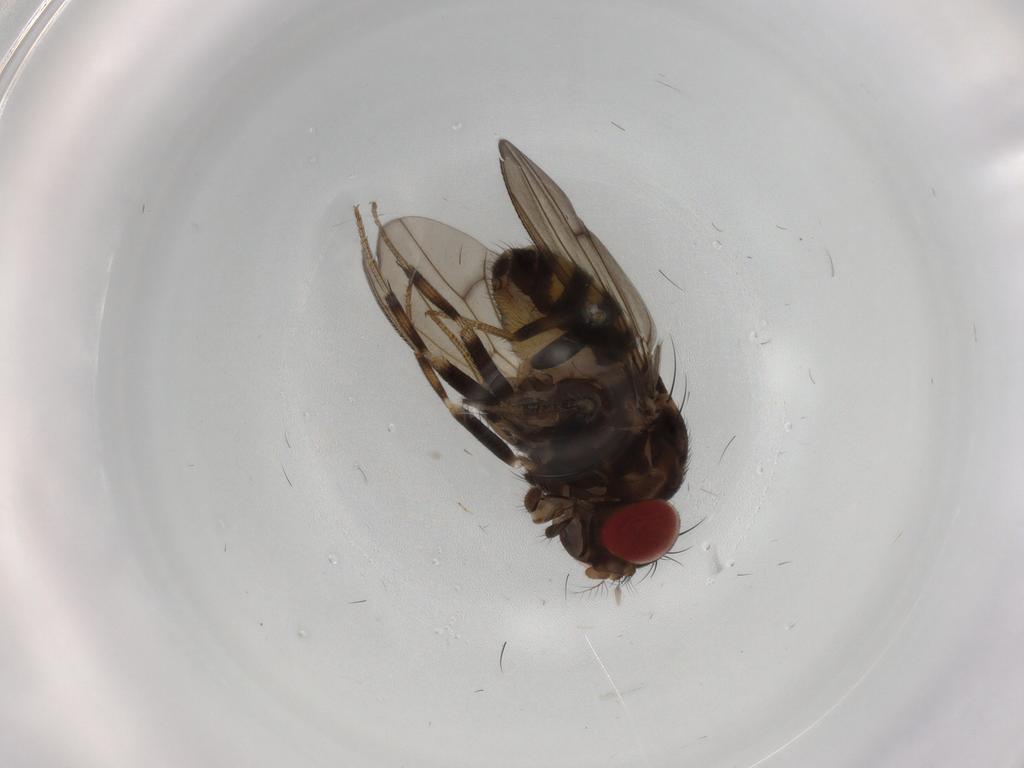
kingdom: Animalia
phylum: Arthropoda
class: Insecta
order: Diptera
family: Drosophilidae
